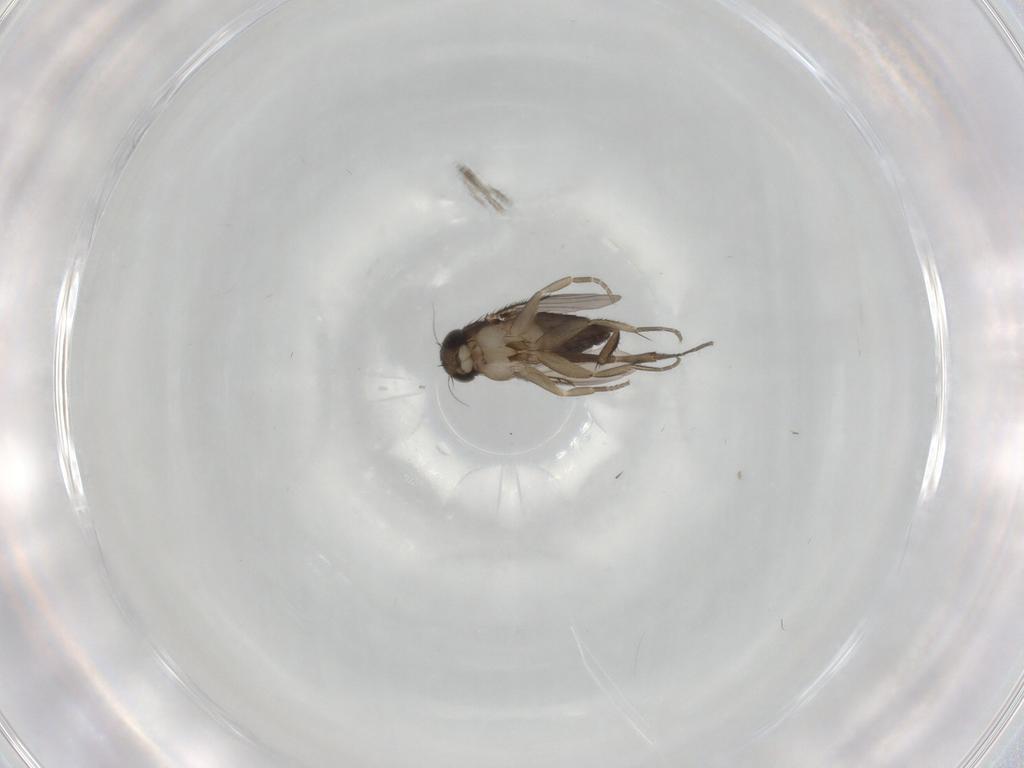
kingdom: Animalia
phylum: Arthropoda
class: Insecta
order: Diptera
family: Phoridae
